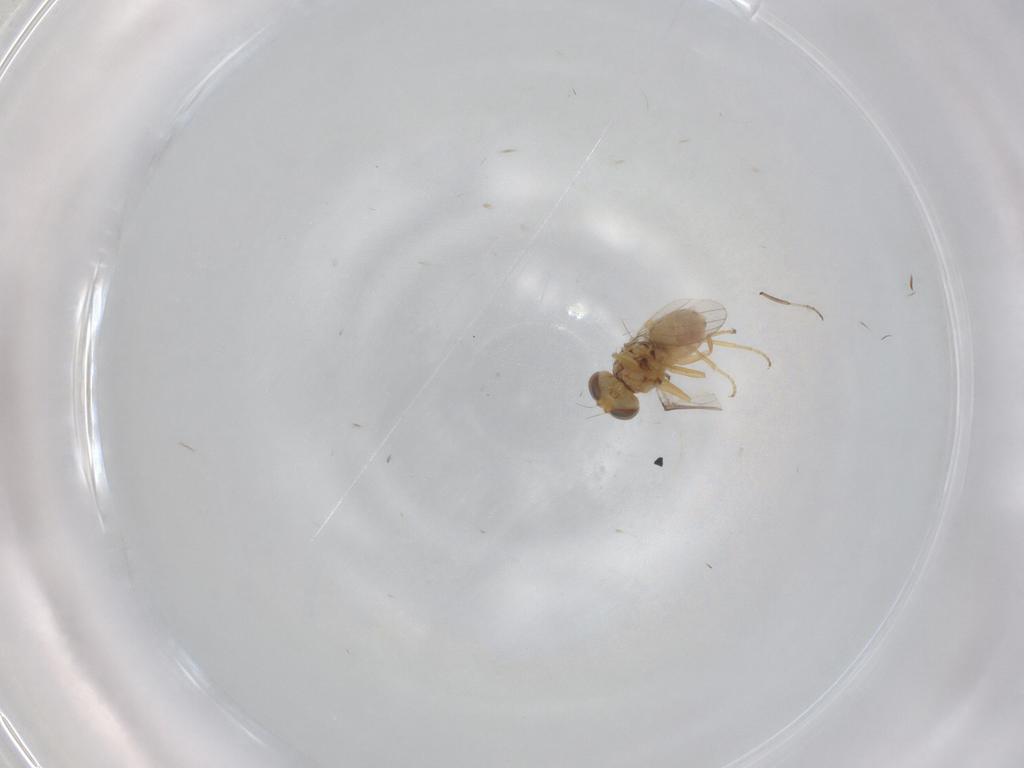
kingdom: Animalia
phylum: Arthropoda
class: Insecta
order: Diptera
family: Chyromyidae
